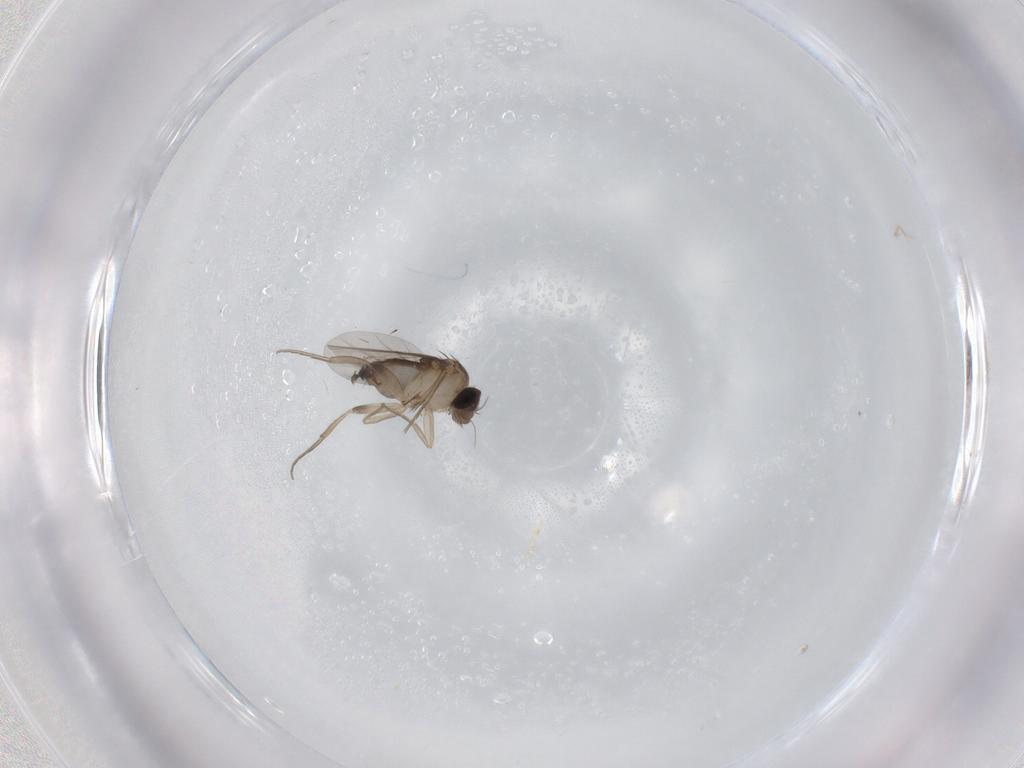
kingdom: Animalia
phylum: Arthropoda
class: Insecta
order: Diptera
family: Phoridae
